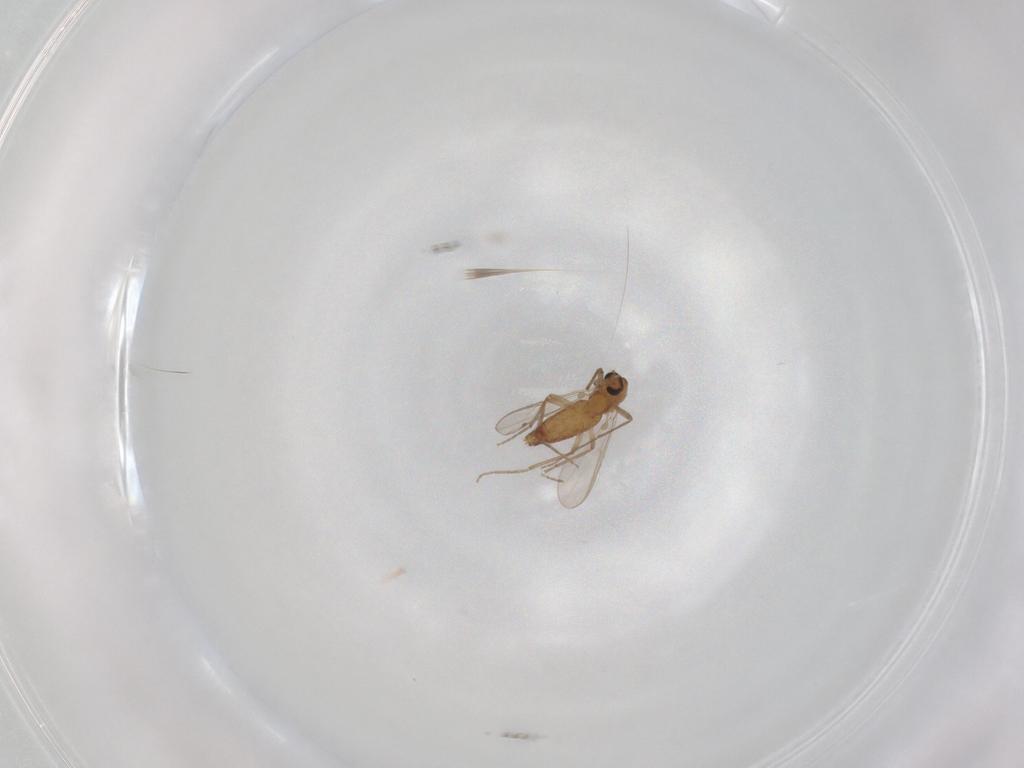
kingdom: Animalia
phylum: Arthropoda
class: Insecta
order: Diptera
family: Chironomidae
